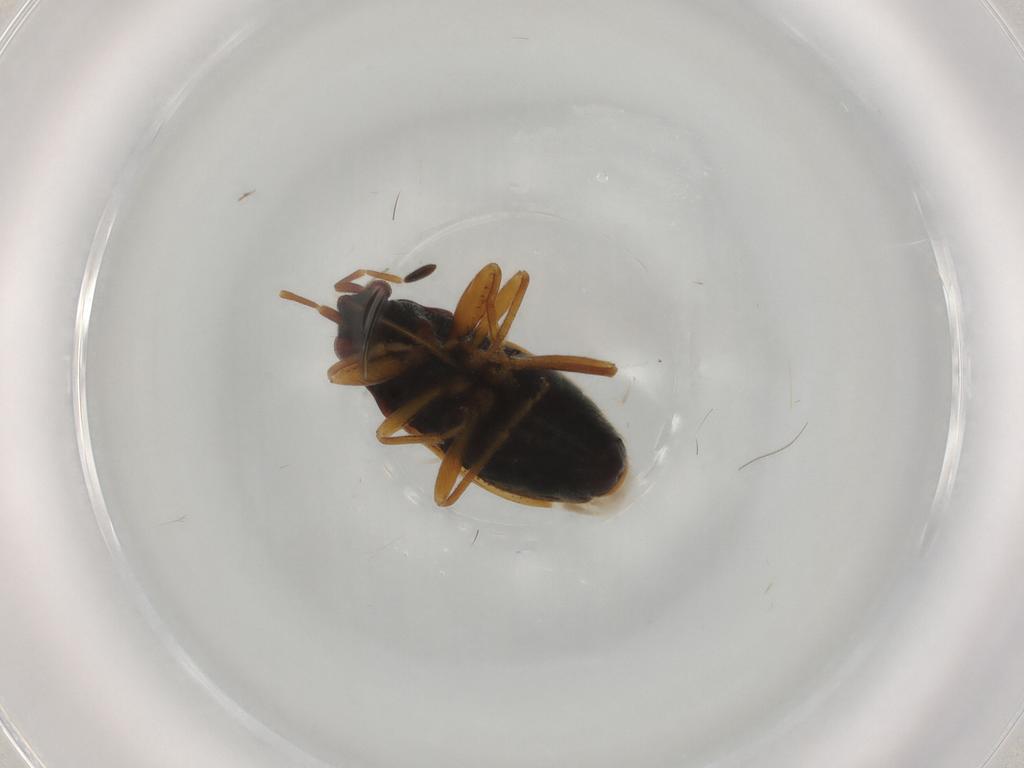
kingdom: Animalia
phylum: Arthropoda
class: Insecta
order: Hemiptera
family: Rhyparochromidae
